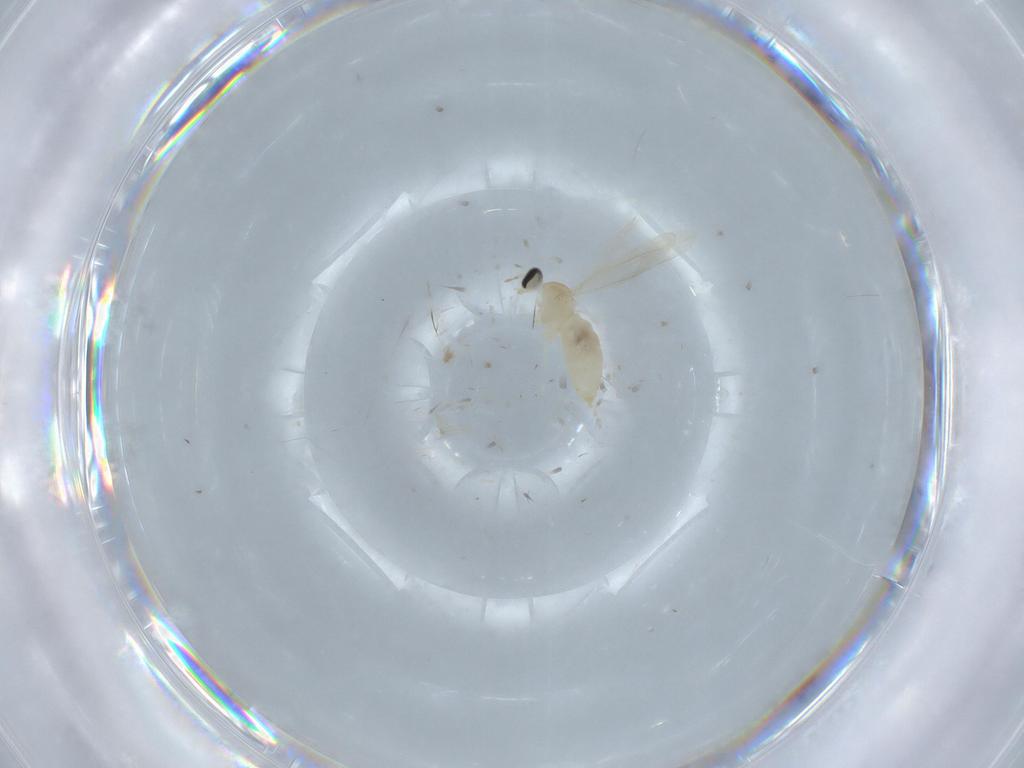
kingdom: Animalia
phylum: Arthropoda
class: Insecta
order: Diptera
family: Cecidomyiidae
